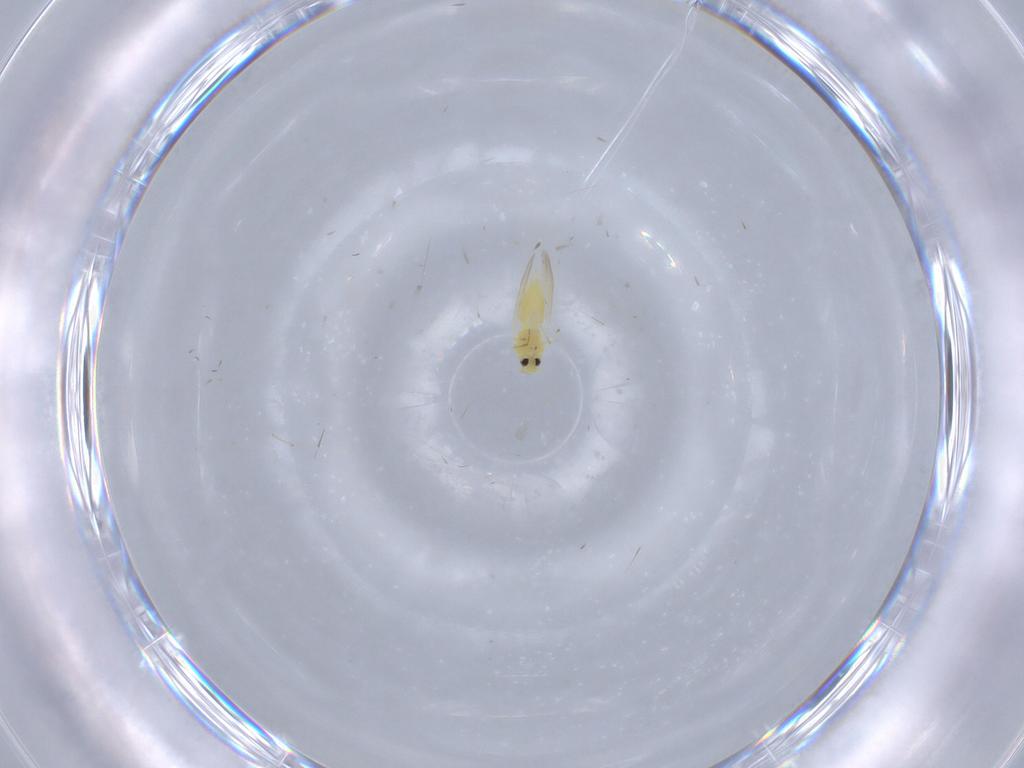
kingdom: Animalia
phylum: Arthropoda
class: Insecta
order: Hemiptera
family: Aleyrodidae
